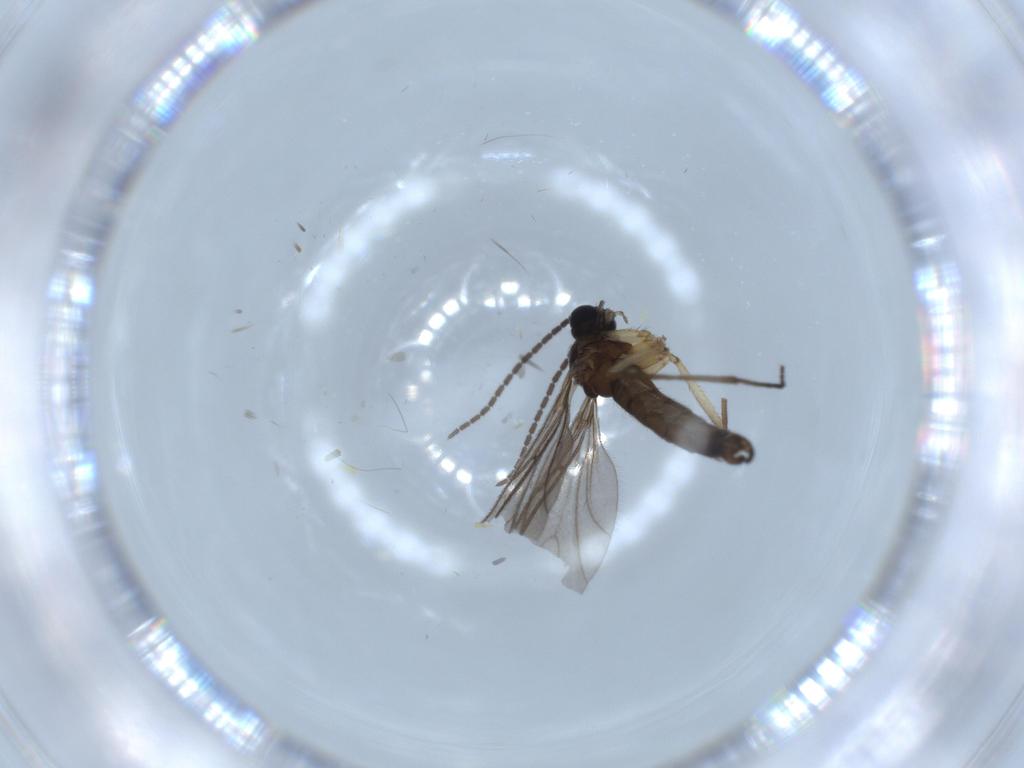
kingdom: Animalia
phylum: Arthropoda
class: Insecta
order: Diptera
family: Sciaridae
